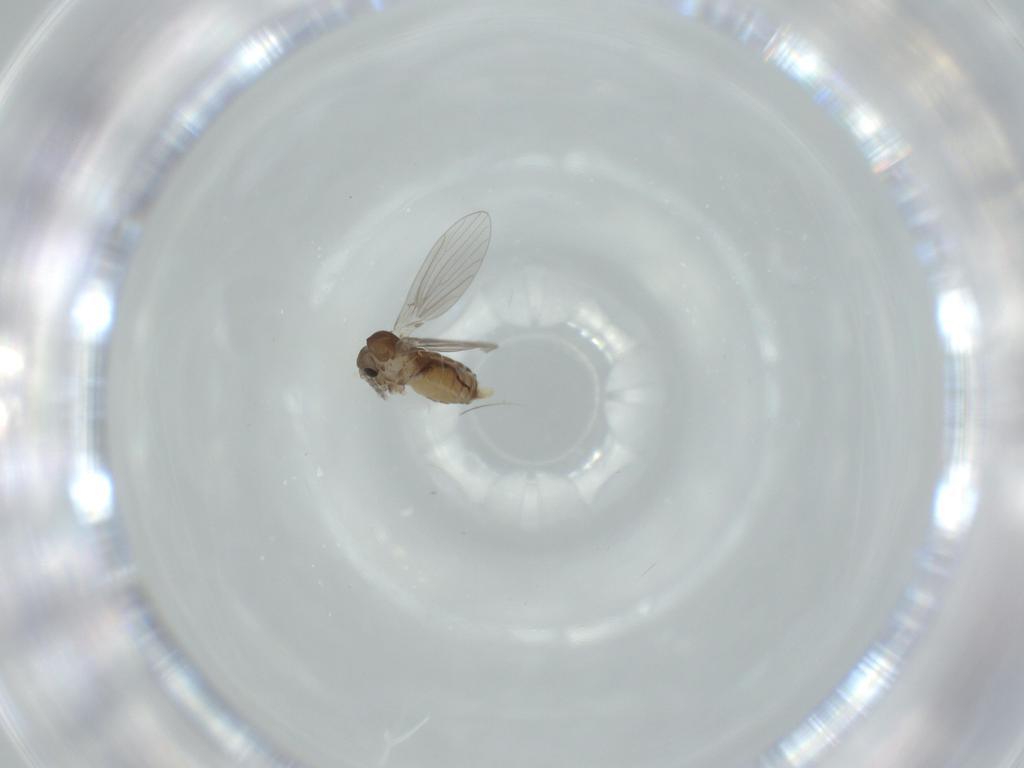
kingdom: Animalia
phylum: Arthropoda
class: Insecta
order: Diptera
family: Psychodidae
